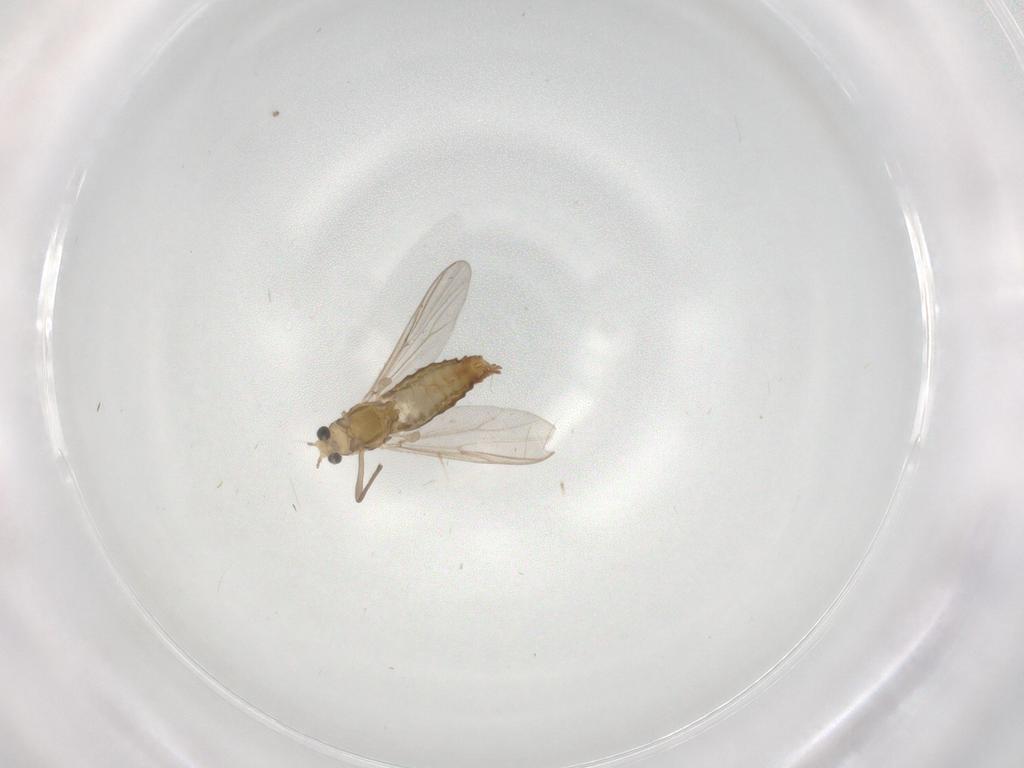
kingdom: Animalia
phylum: Arthropoda
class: Insecta
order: Diptera
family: Chironomidae
